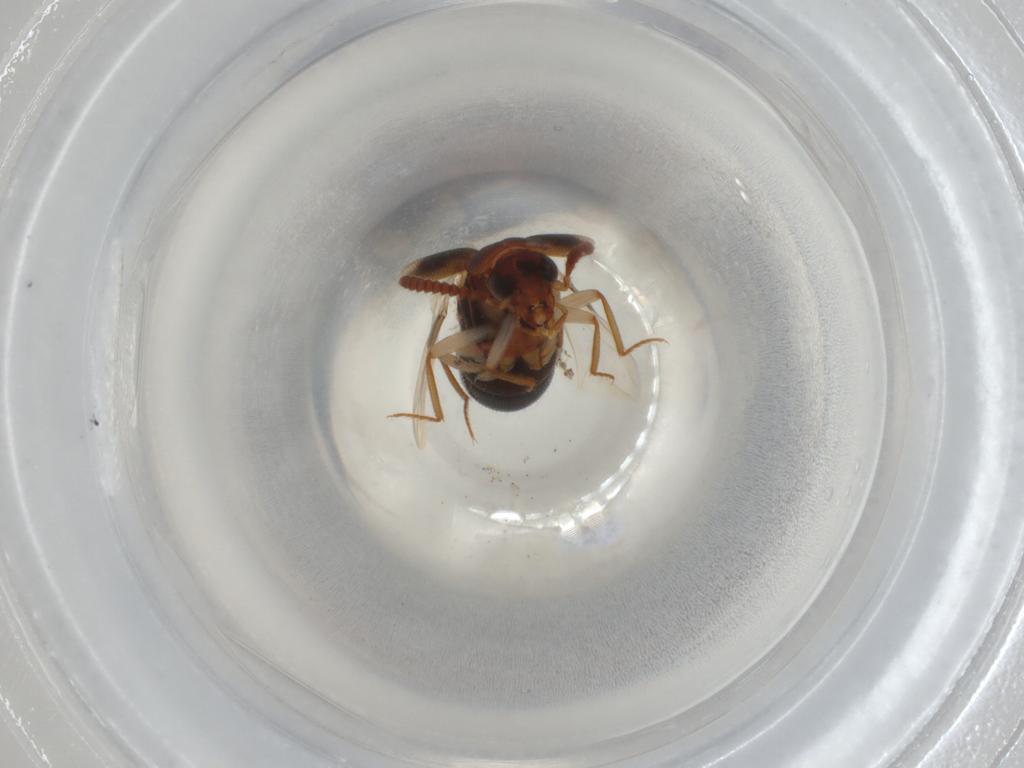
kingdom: Animalia
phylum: Arthropoda
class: Insecta
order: Coleoptera
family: Staphylinidae
